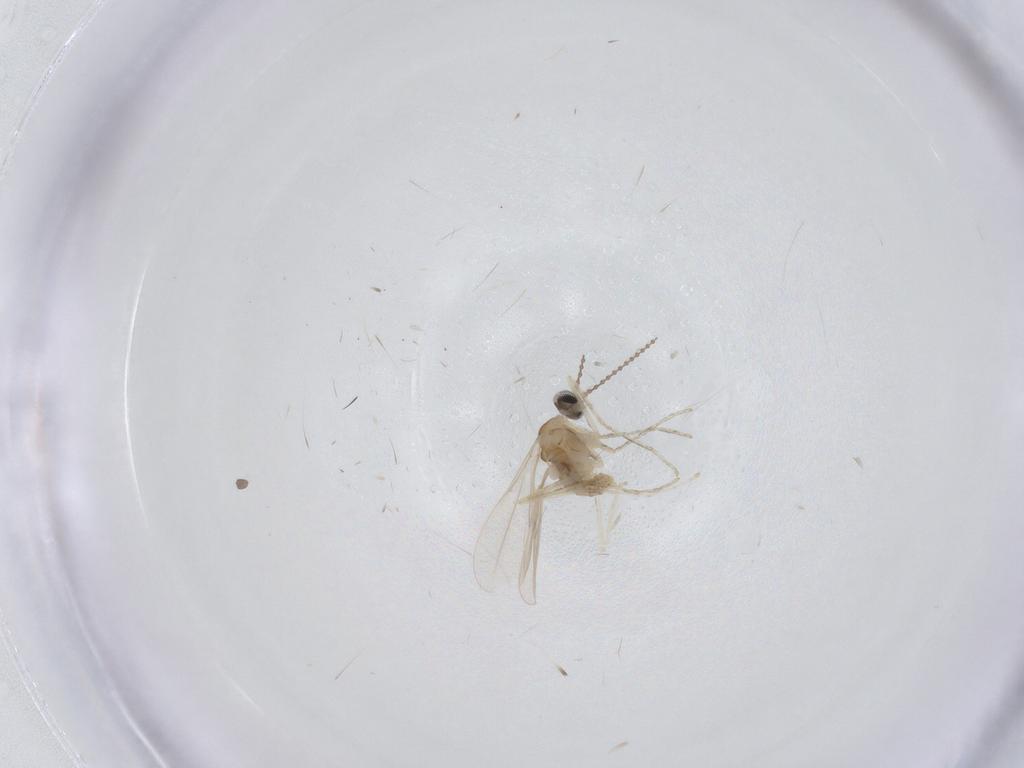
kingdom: Animalia
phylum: Arthropoda
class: Insecta
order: Diptera
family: Cecidomyiidae
